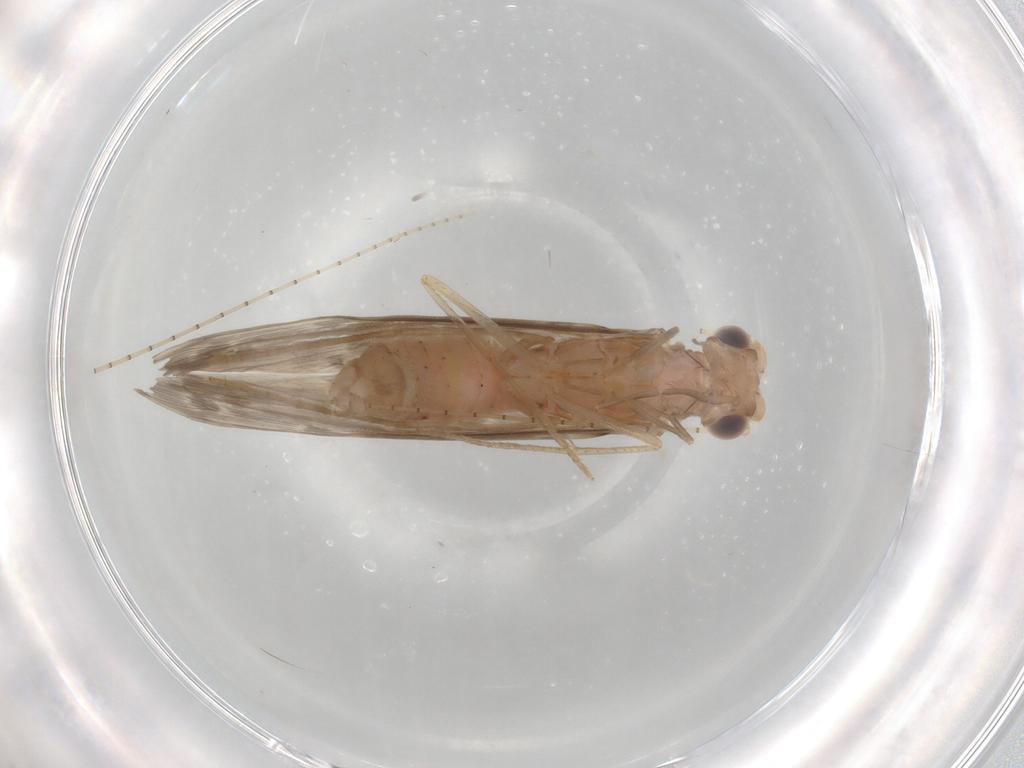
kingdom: Animalia
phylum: Arthropoda
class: Insecta
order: Trichoptera
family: Leptoceridae
